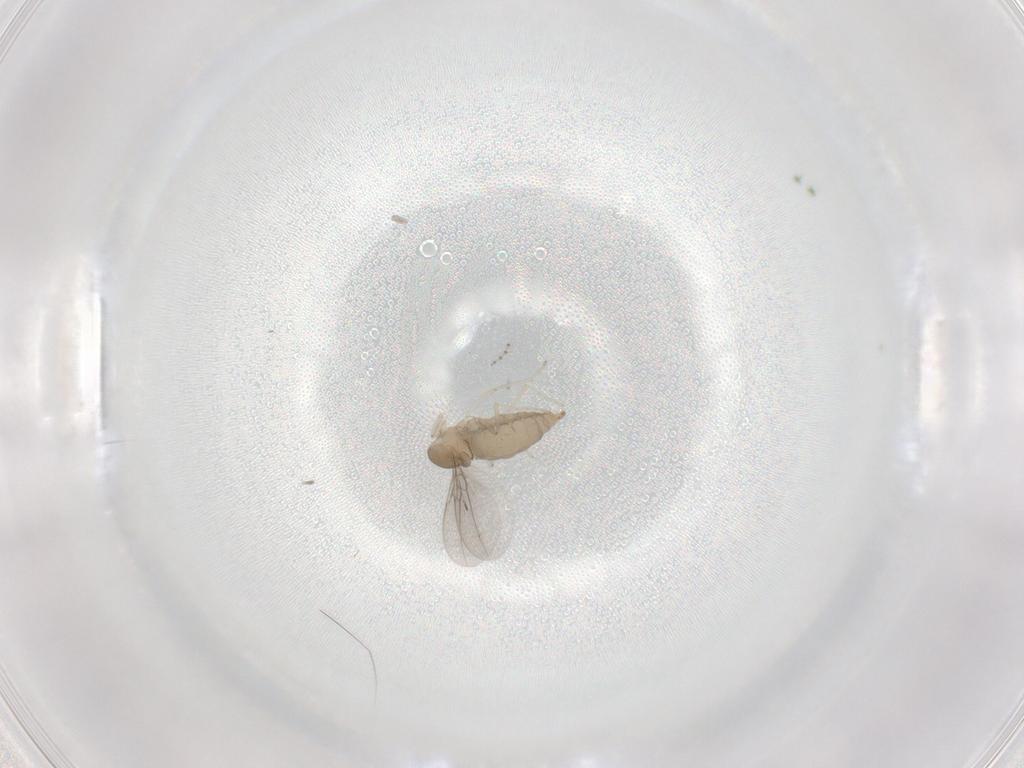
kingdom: Animalia
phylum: Arthropoda
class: Insecta
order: Diptera
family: Cecidomyiidae
